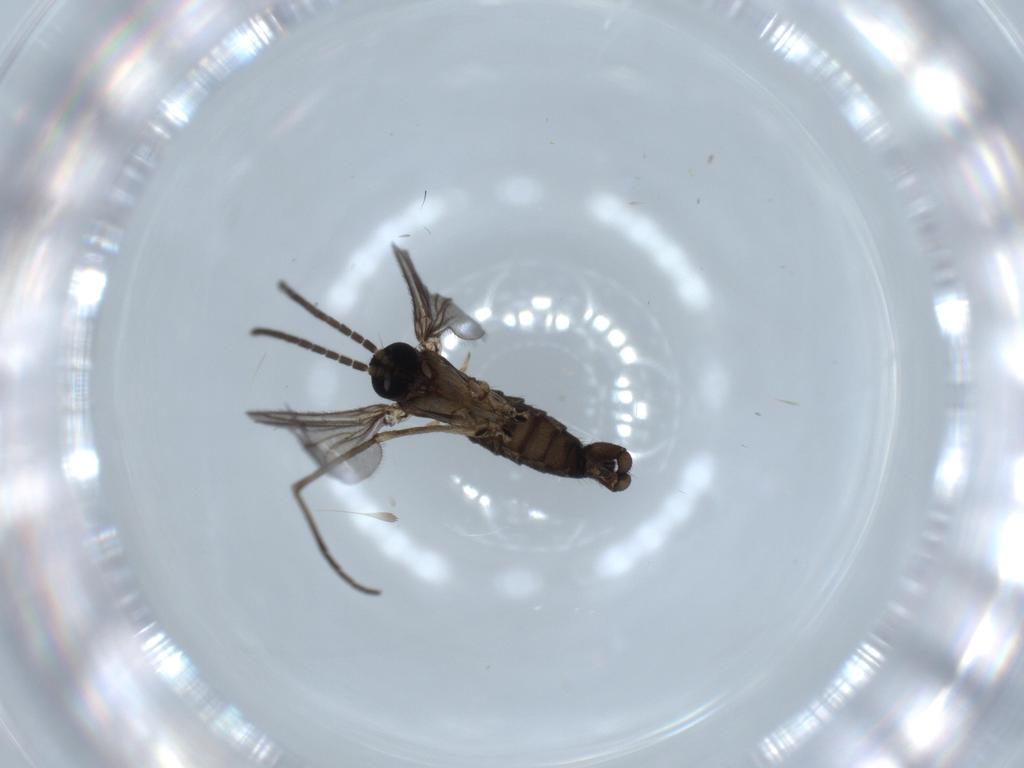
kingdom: Animalia
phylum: Arthropoda
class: Insecta
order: Diptera
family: Sciaridae
